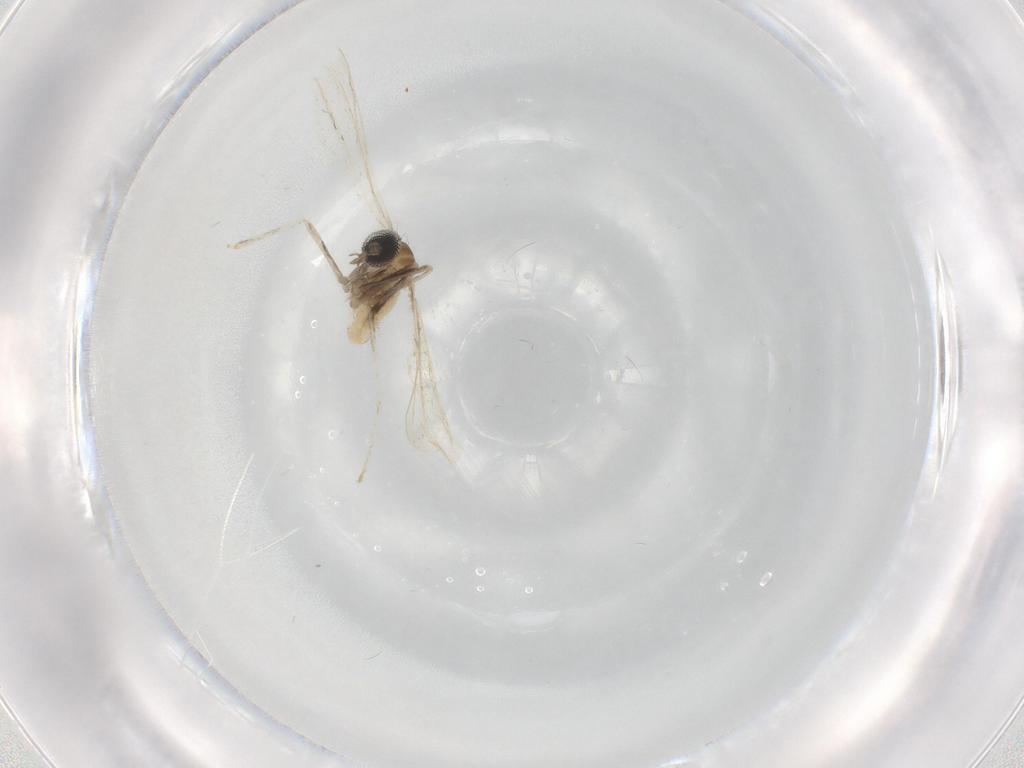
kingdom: Animalia
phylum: Arthropoda
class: Insecta
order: Diptera
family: Cecidomyiidae
